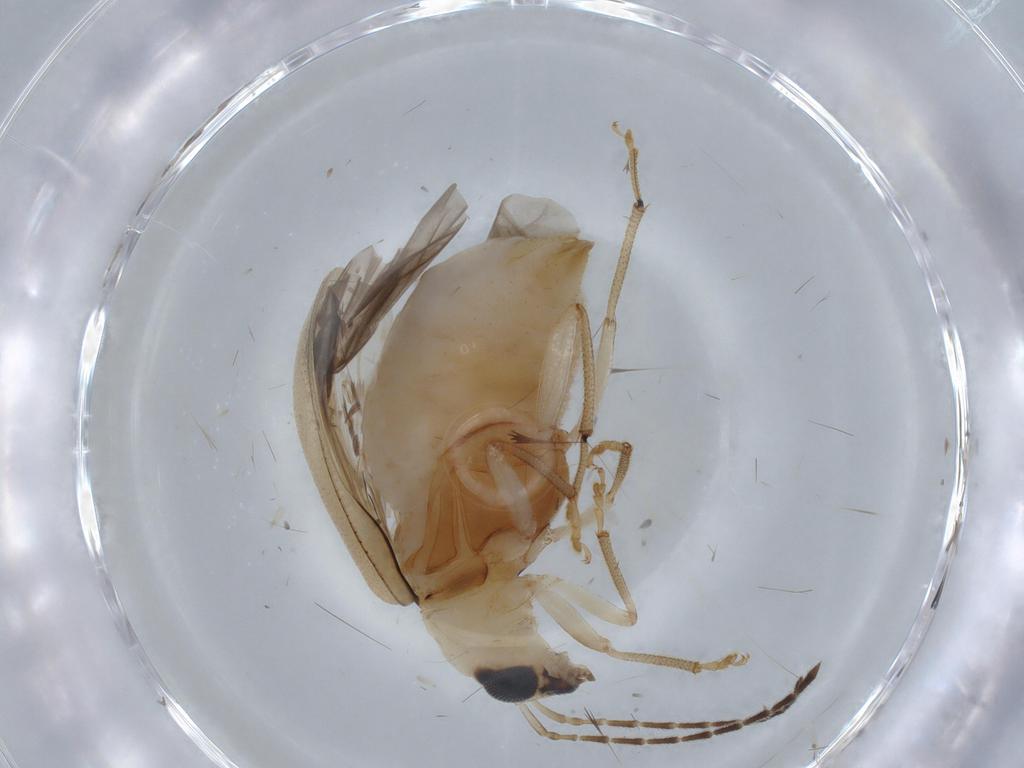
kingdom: Animalia
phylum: Arthropoda
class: Insecta
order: Coleoptera
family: Chrysomelidae
